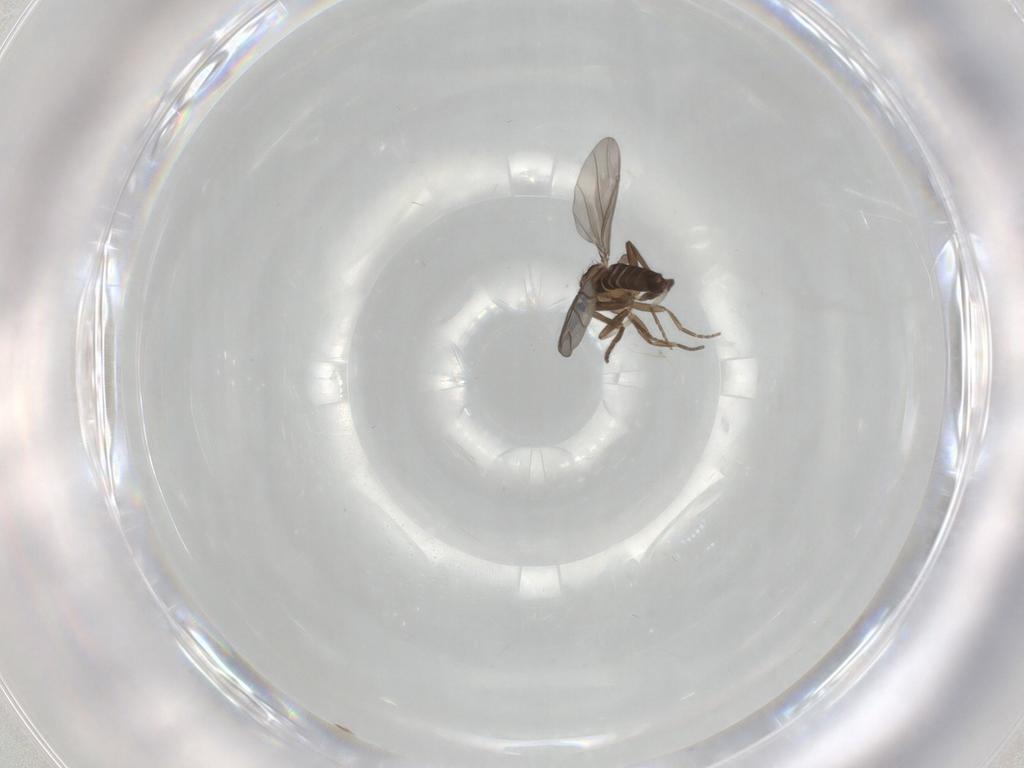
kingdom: Animalia
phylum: Arthropoda
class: Insecta
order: Diptera
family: Phoridae
